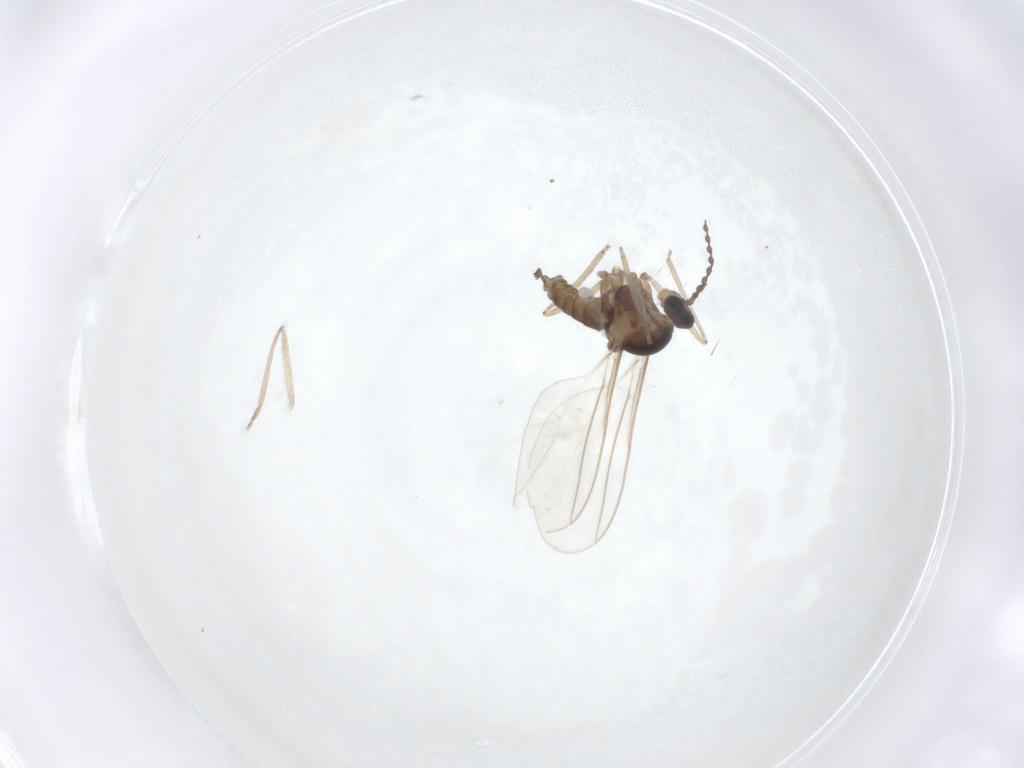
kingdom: Animalia
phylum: Arthropoda
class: Insecta
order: Diptera
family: Cecidomyiidae
